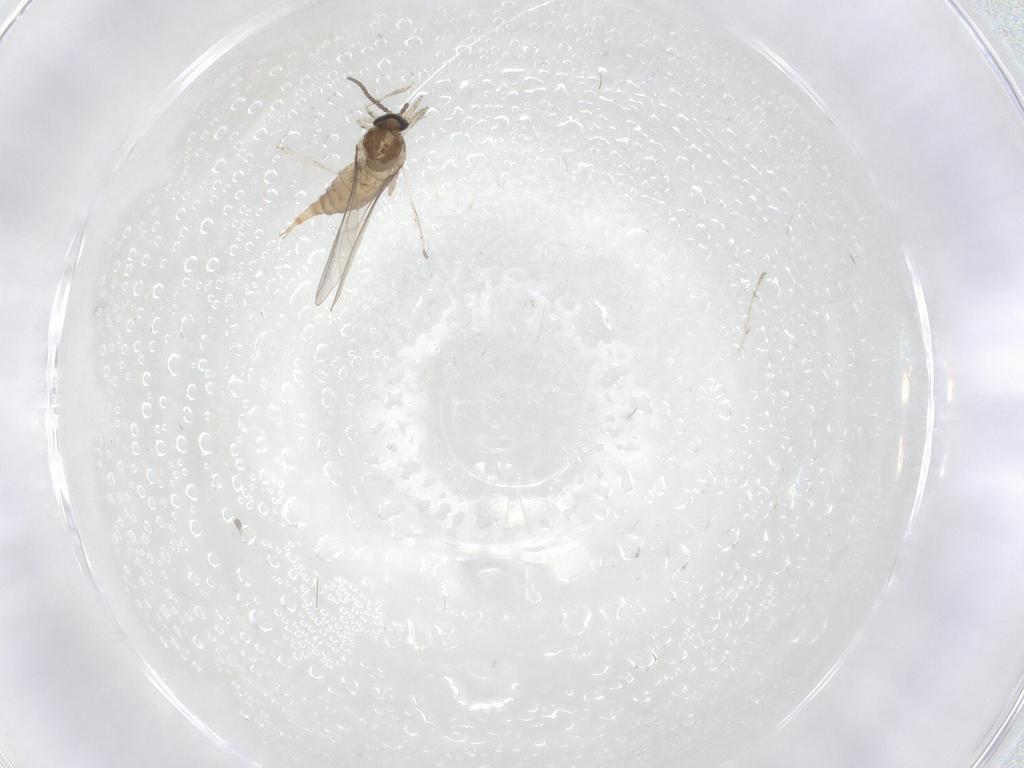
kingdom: Animalia
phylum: Arthropoda
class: Insecta
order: Diptera
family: Cecidomyiidae
